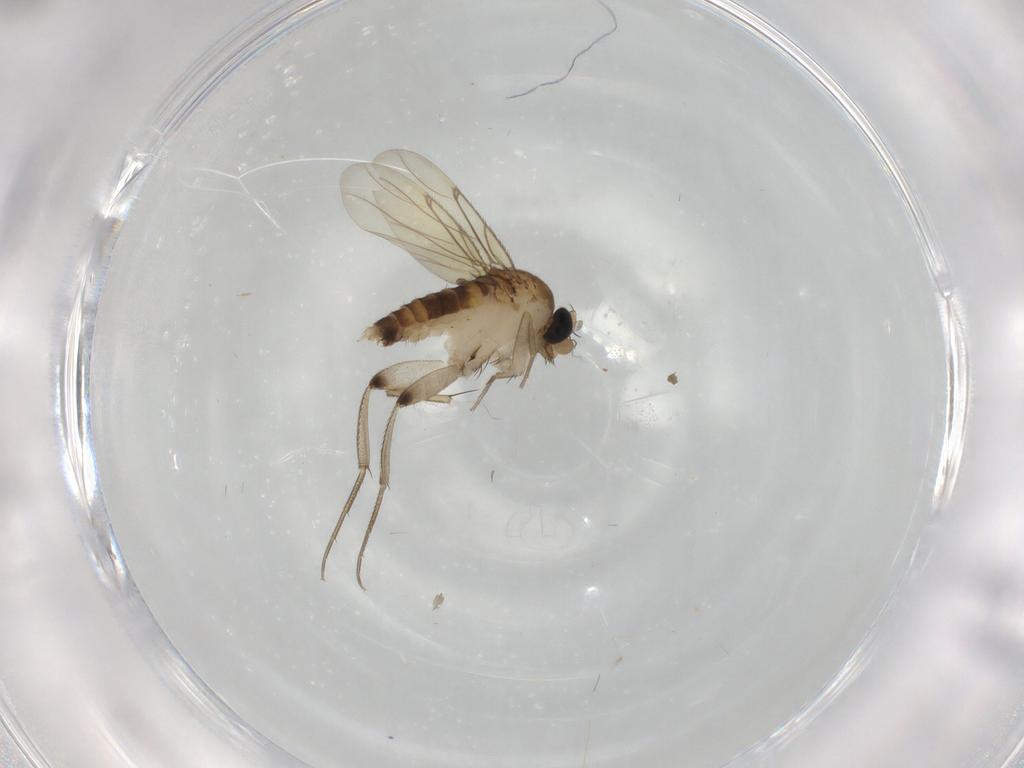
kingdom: Animalia
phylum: Arthropoda
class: Insecta
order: Diptera
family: Phoridae
